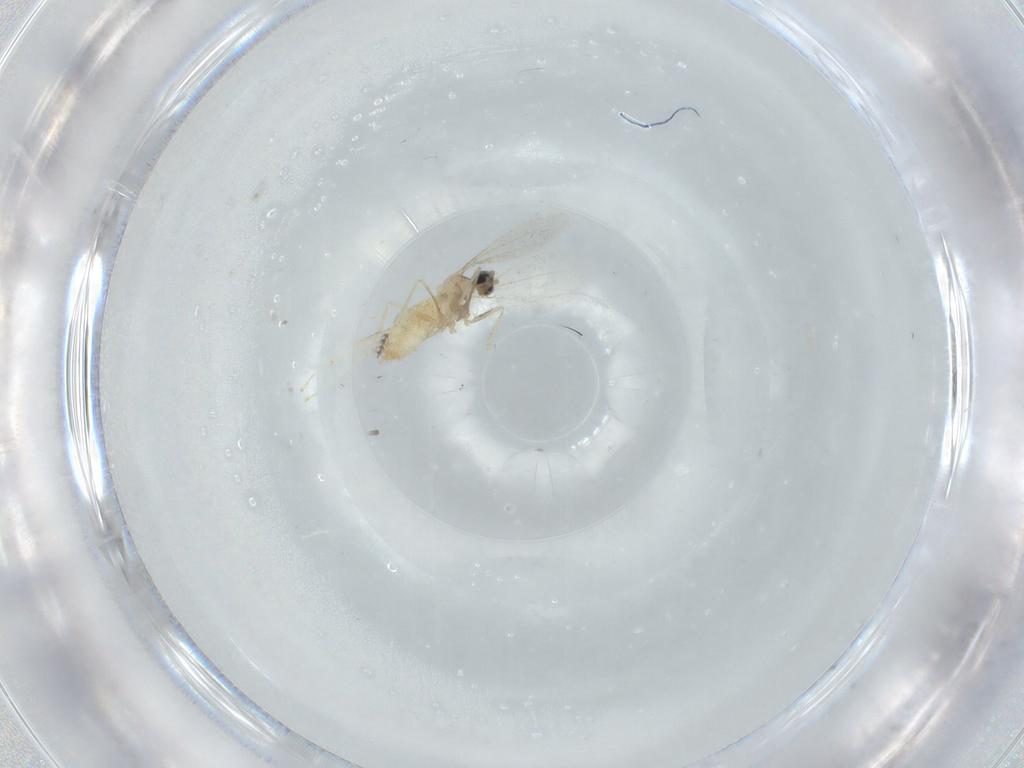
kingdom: Animalia
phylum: Arthropoda
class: Insecta
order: Diptera
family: Cecidomyiidae
